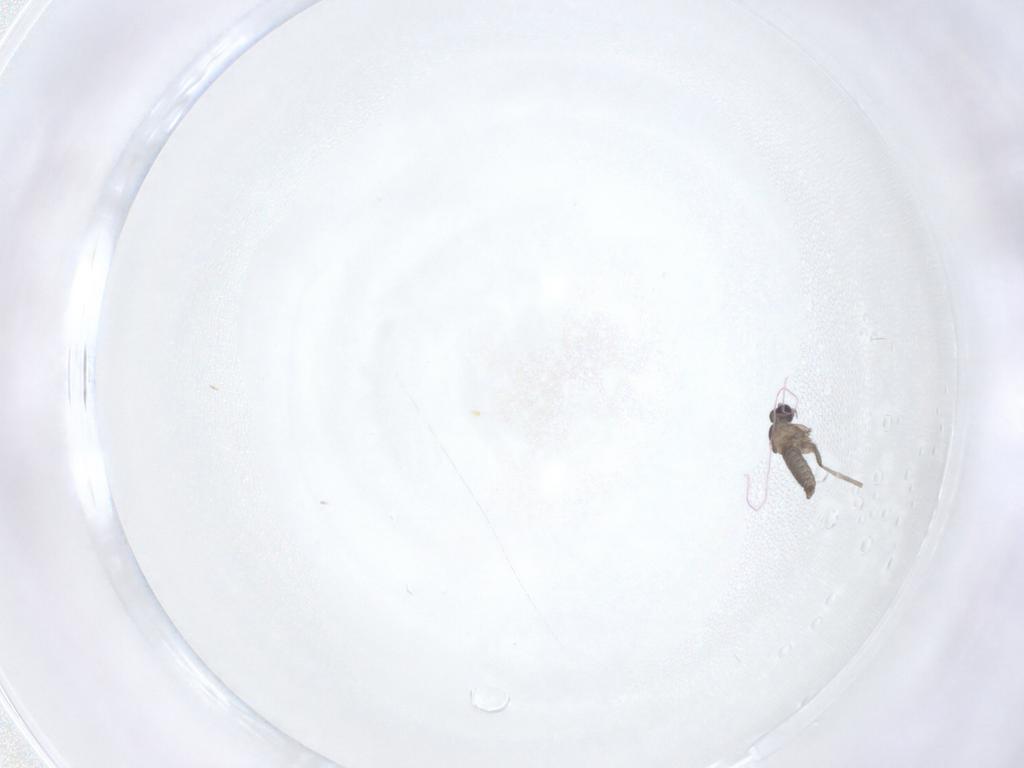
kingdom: Animalia
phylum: Arthropoda
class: Insecta
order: Diptera
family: Cecidomyiidae
